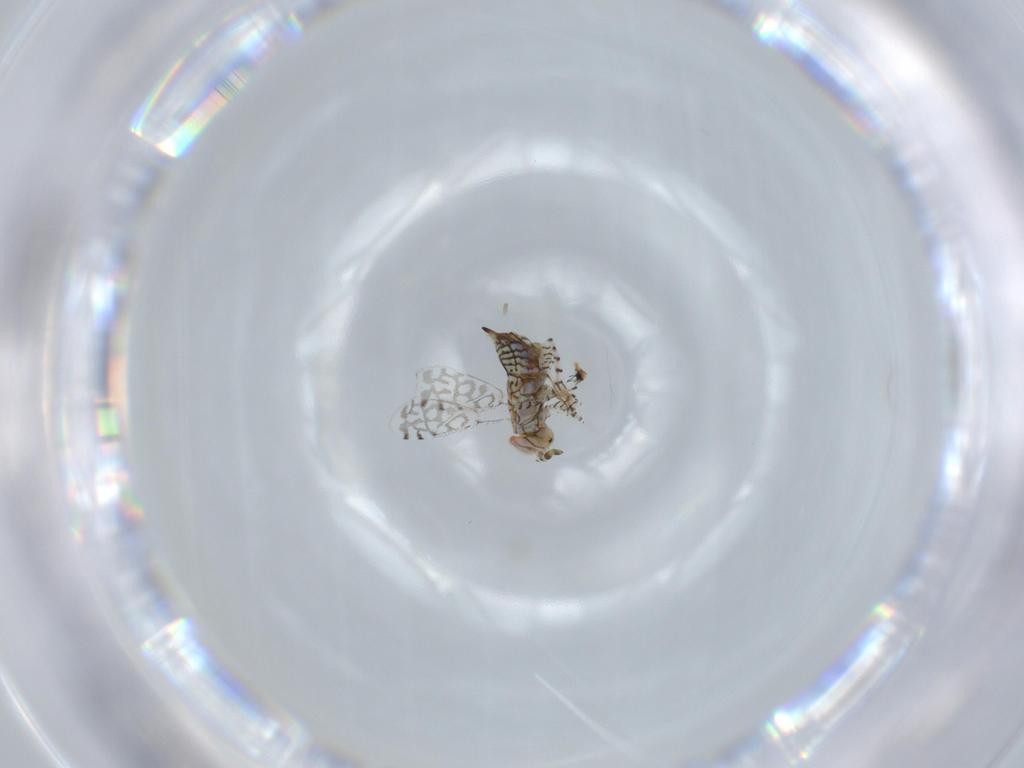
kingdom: Animalia
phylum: Arthropoda
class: Insecta
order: Hymenoptera
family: Aphelinidae
